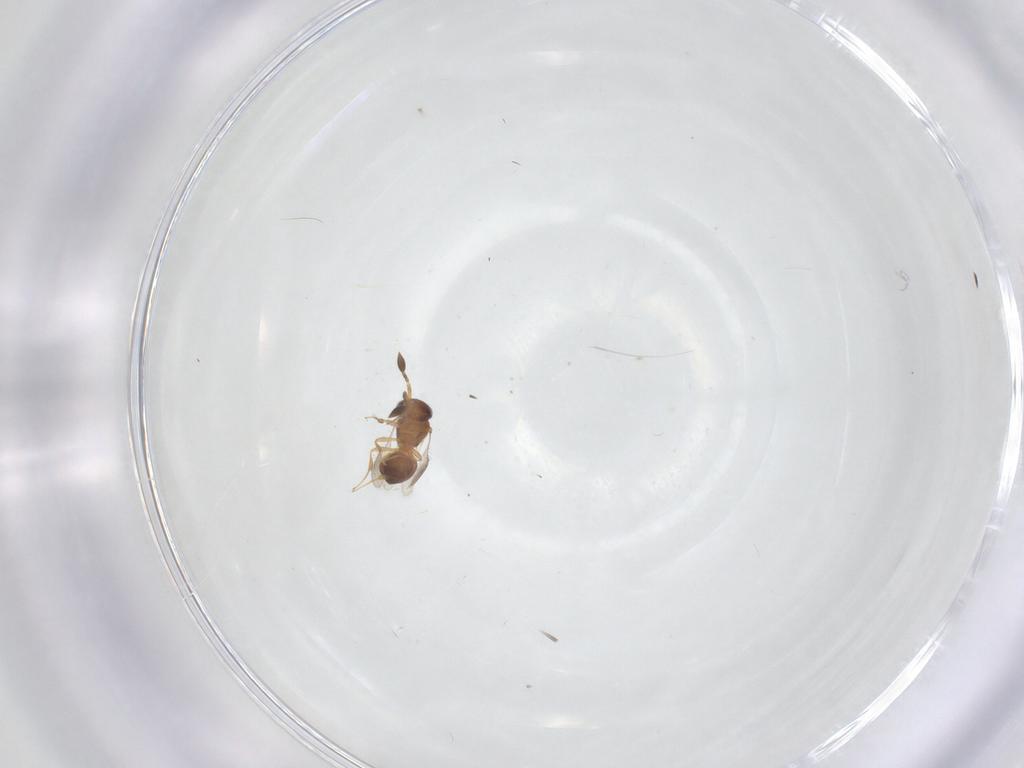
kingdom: Animalia
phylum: Arthropoda
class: Insecta
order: Hymenoptera
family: Scelionidae
